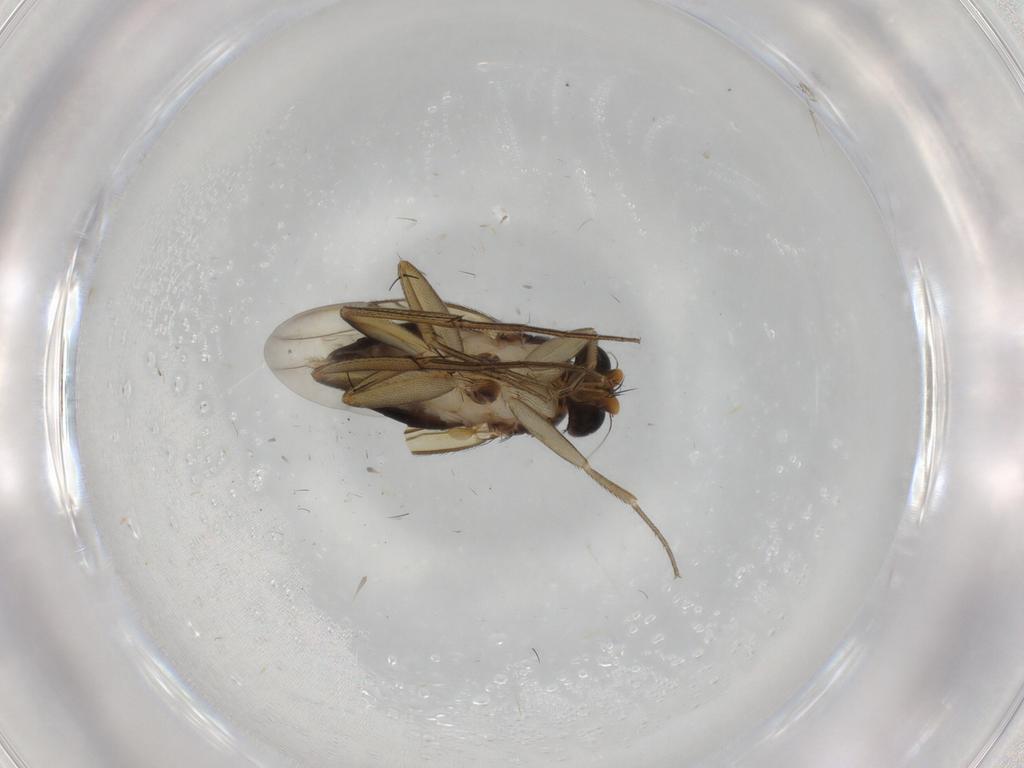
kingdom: Animalia
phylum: Arthropoda
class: Insecta
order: Diptera
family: Phoridae
